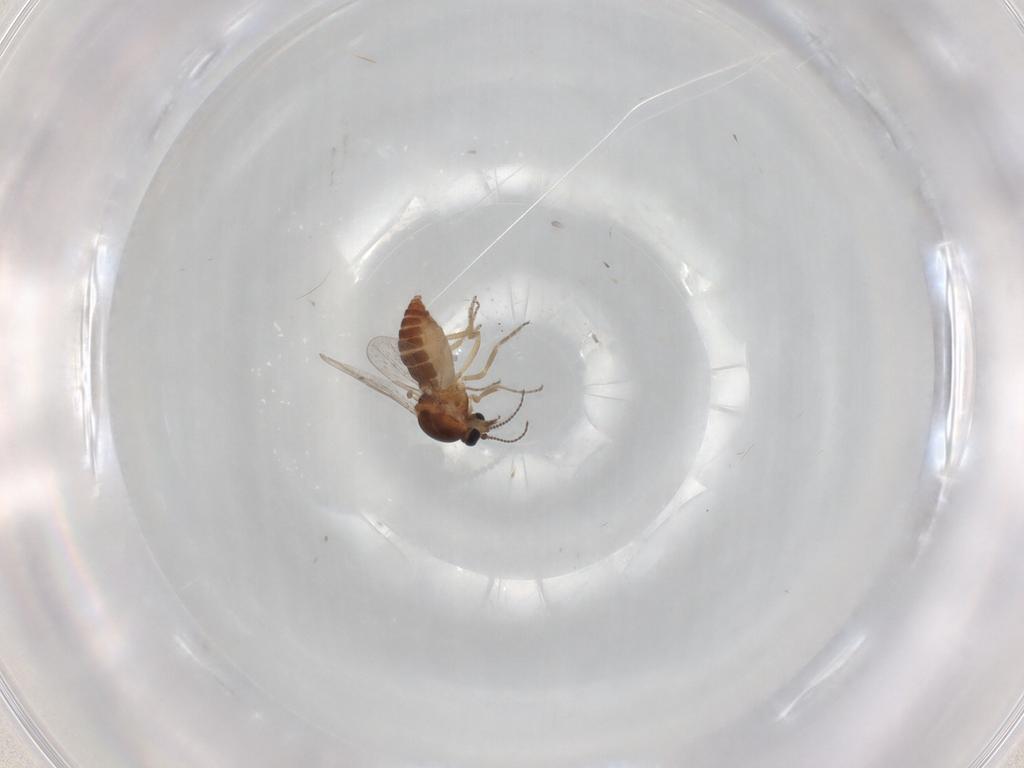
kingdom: Animalia
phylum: Arthropoda
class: Insecta
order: Diptera
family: Ceratopogonidae
